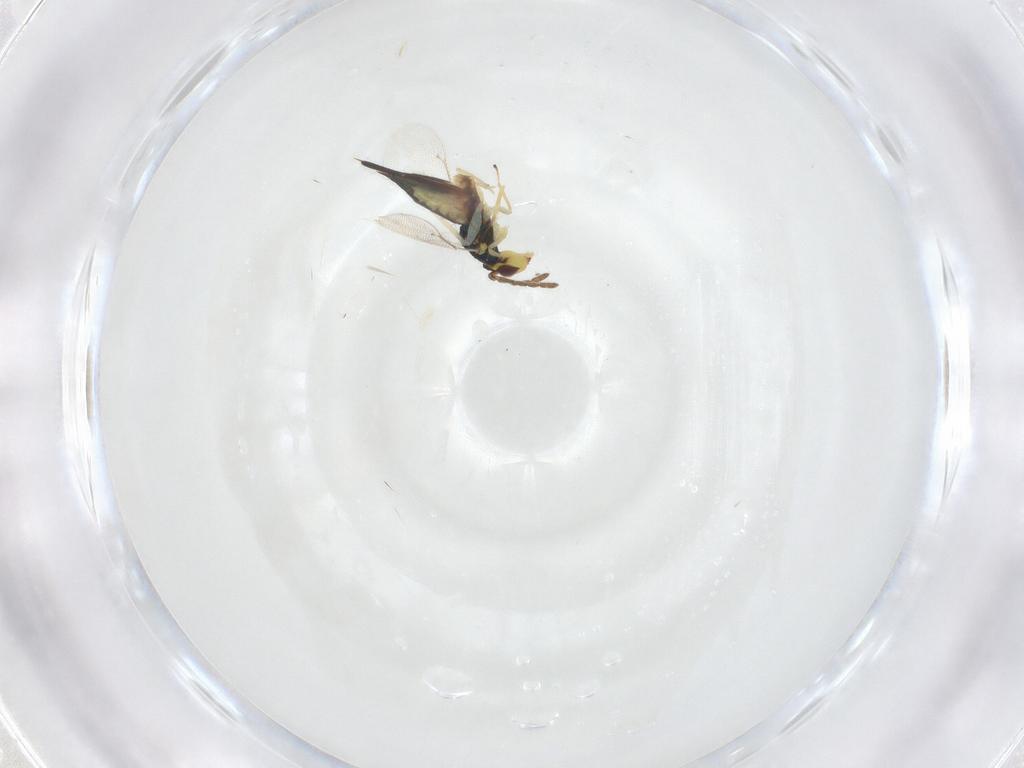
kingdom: Animalia
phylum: Arthropoda
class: Insecta
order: Hymenoptera
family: Eulophidae
